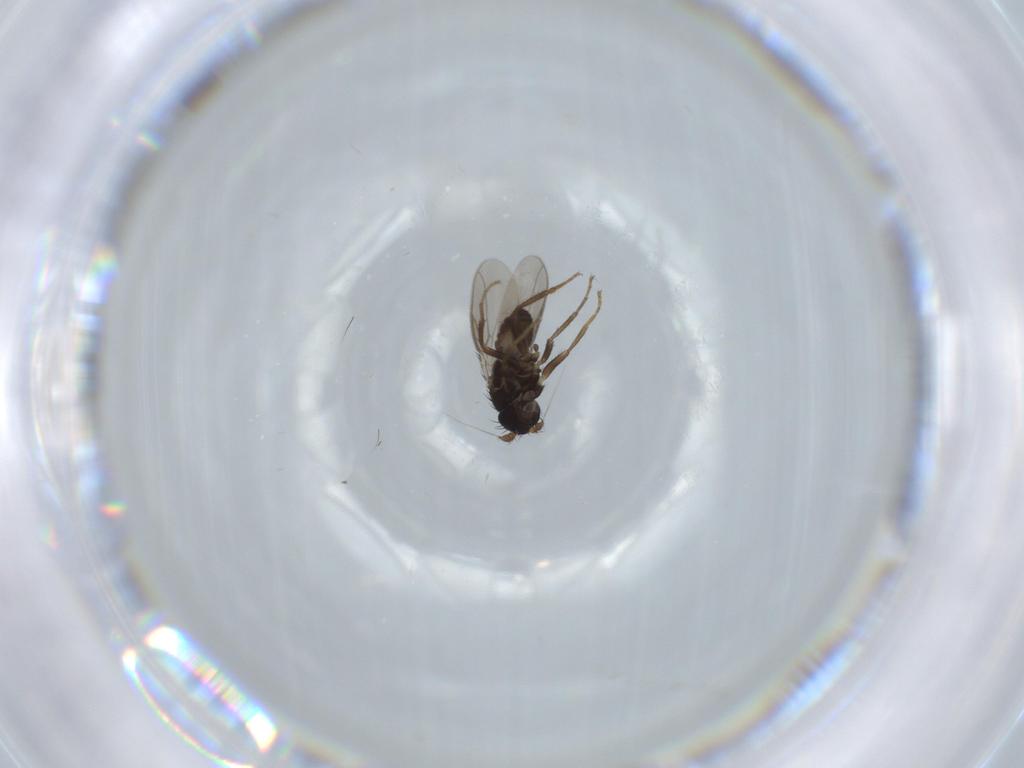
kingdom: Animalia
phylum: Arthropoda
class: Insecta
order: Diptera
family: Sphaeroceridae
